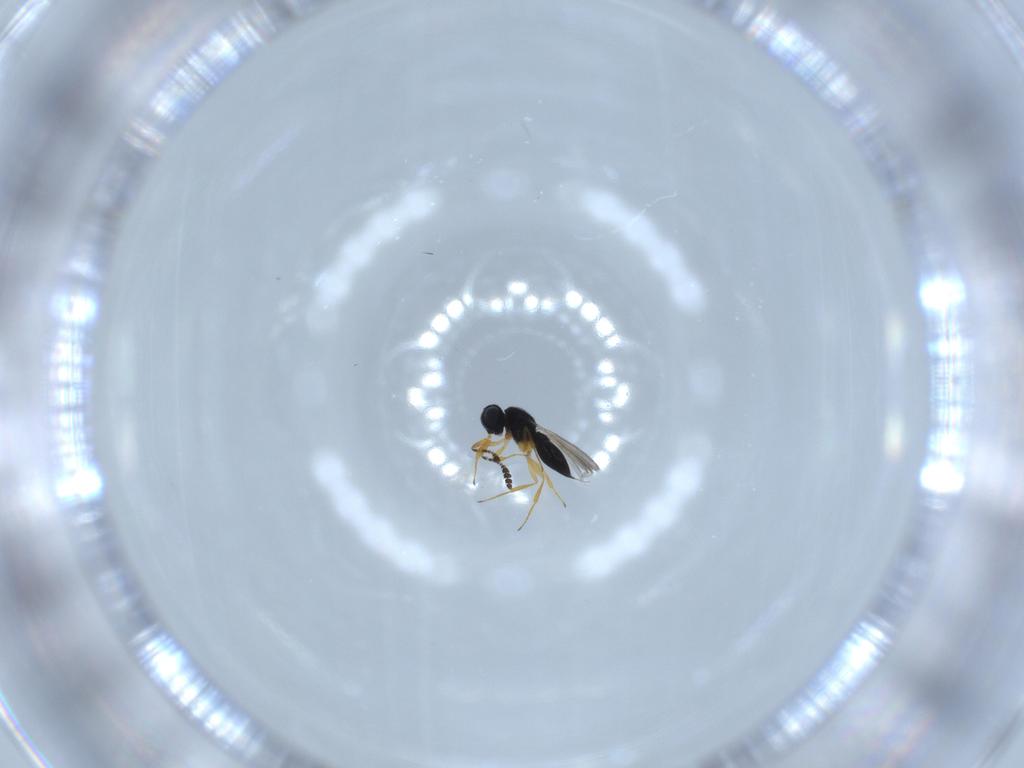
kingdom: Animalia
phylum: Arthropoda
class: Insecta
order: Hymenoptera
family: Scelionidae
